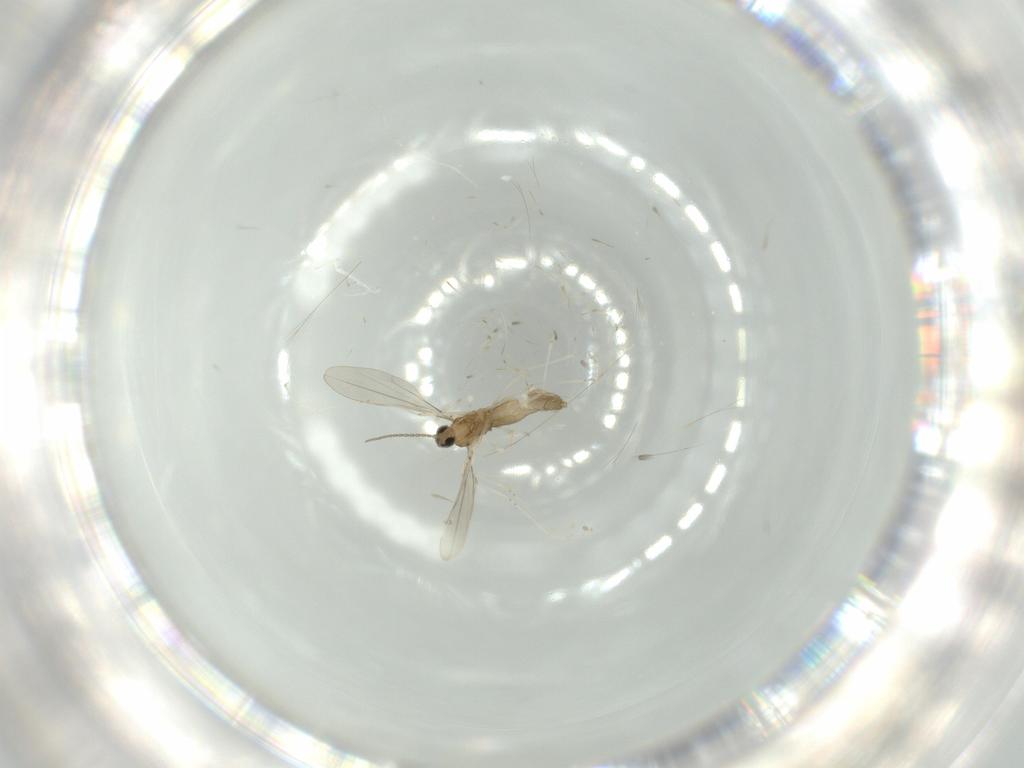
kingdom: Animalia
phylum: Arthropoda
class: Insecta
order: Diptera
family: Cecidomyiidae
